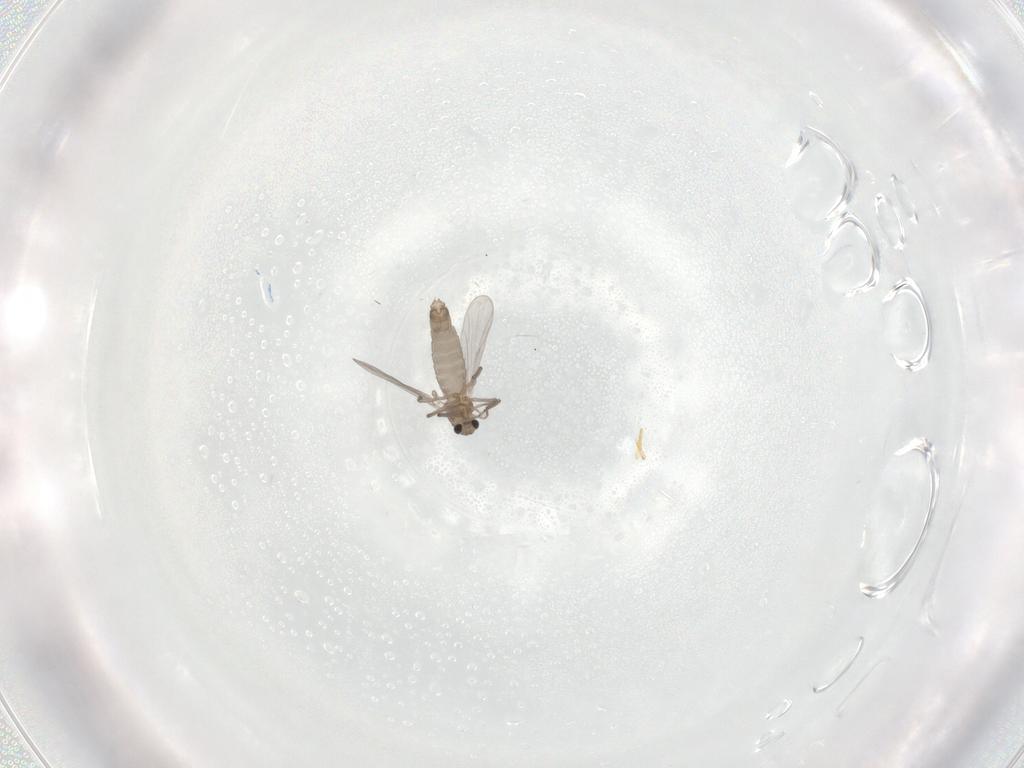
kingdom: Animalia
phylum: Arthropoda
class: Insecta
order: Diptera
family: Chironomidae
